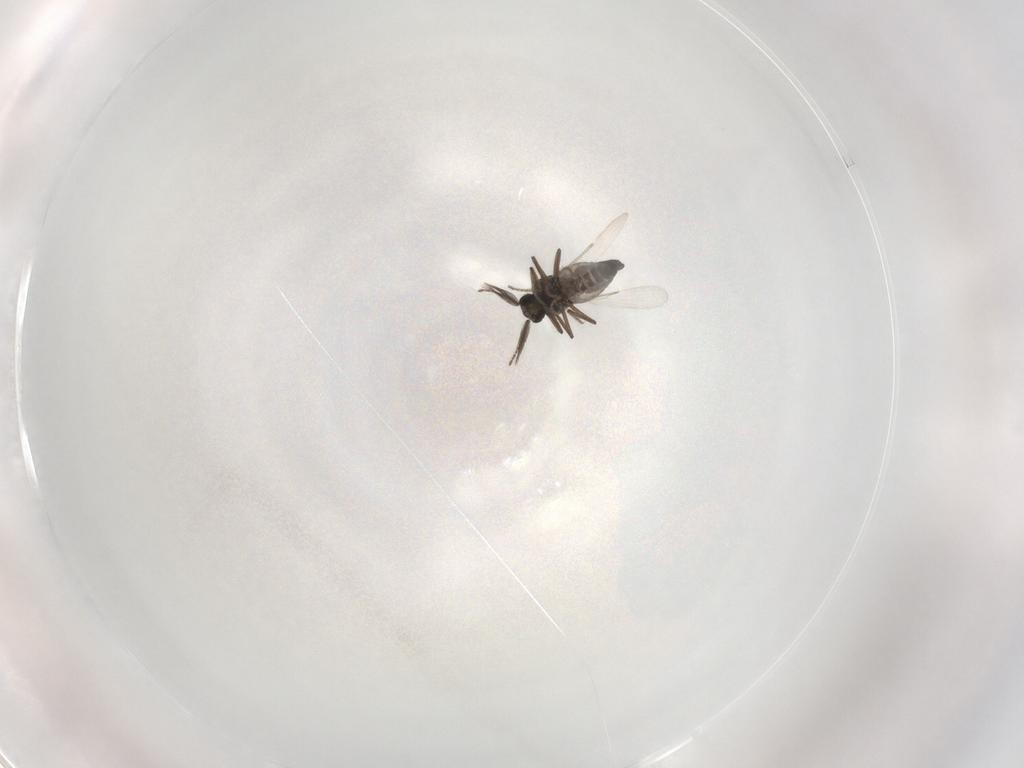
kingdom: Animalia
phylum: Arthropoda
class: Insecta
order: Diptera
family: Ceratopogonidae
